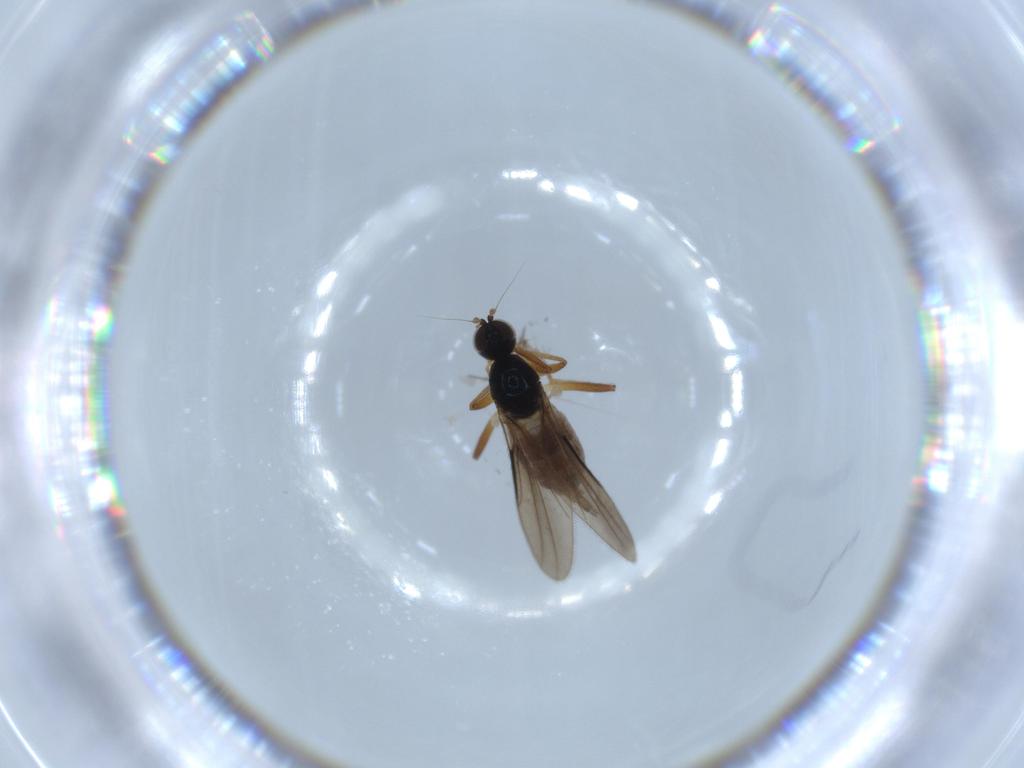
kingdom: Animalia
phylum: Arthropoda
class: Insecta
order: Diptera
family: Hybotidae
